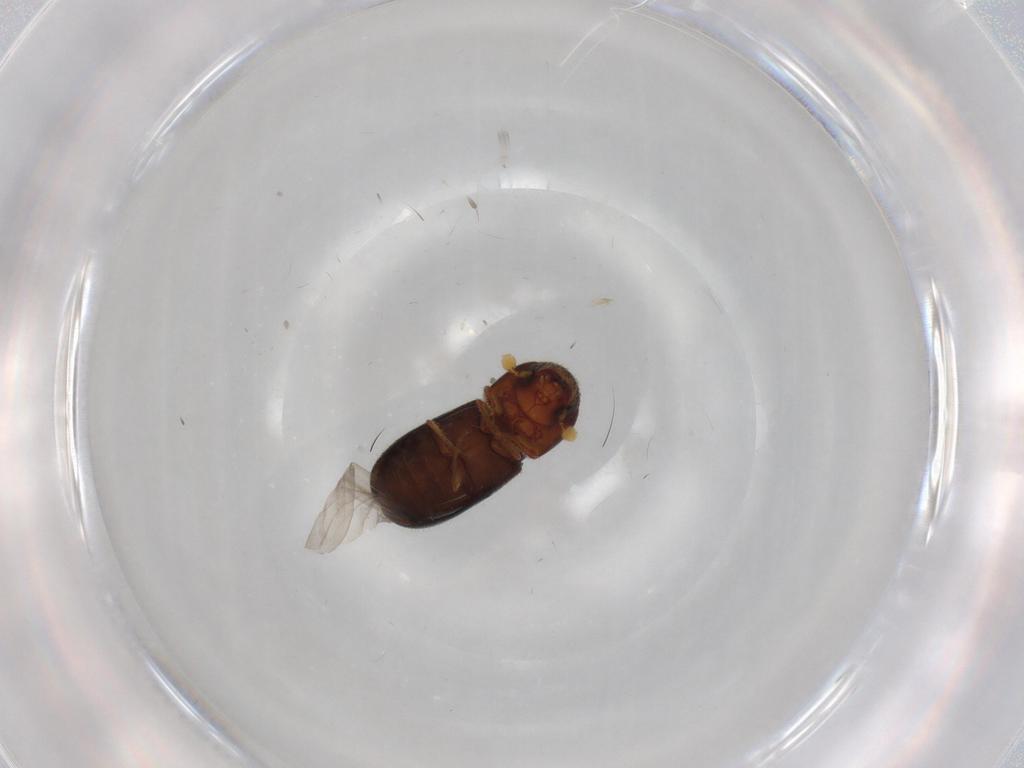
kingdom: Animalia
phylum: Arthropoda
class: Insecta
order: Coleoptera
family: Curculionidae
